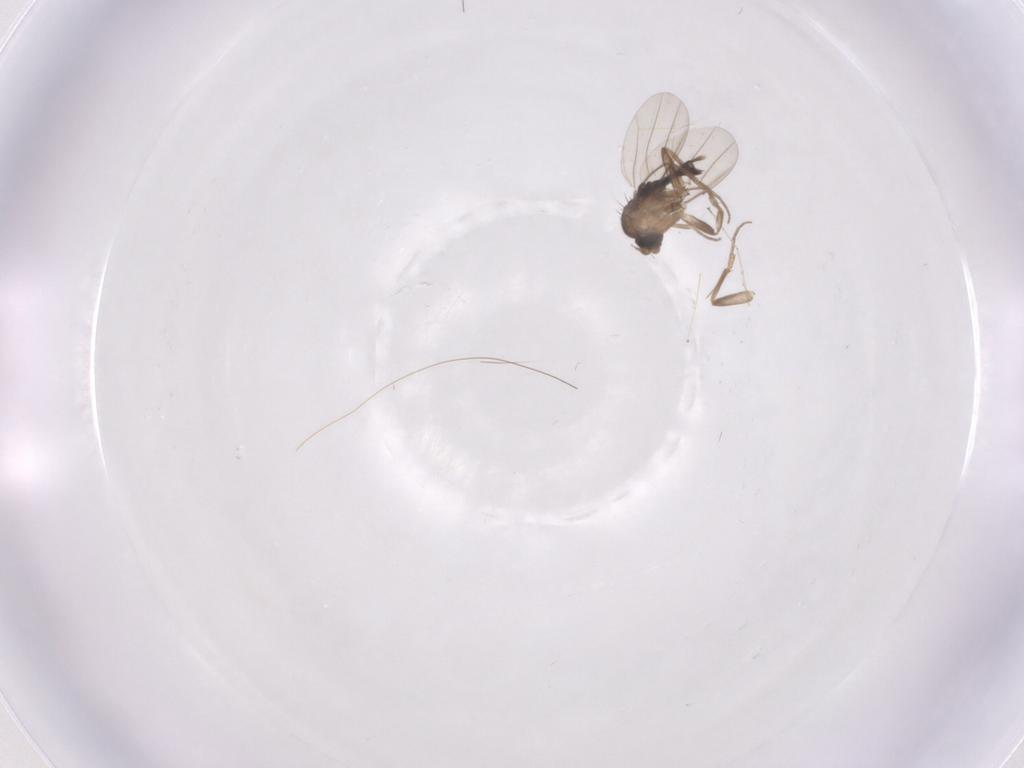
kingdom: Animalia
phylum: Arthropoda
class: Insecta
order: Diptera
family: Phoridae
